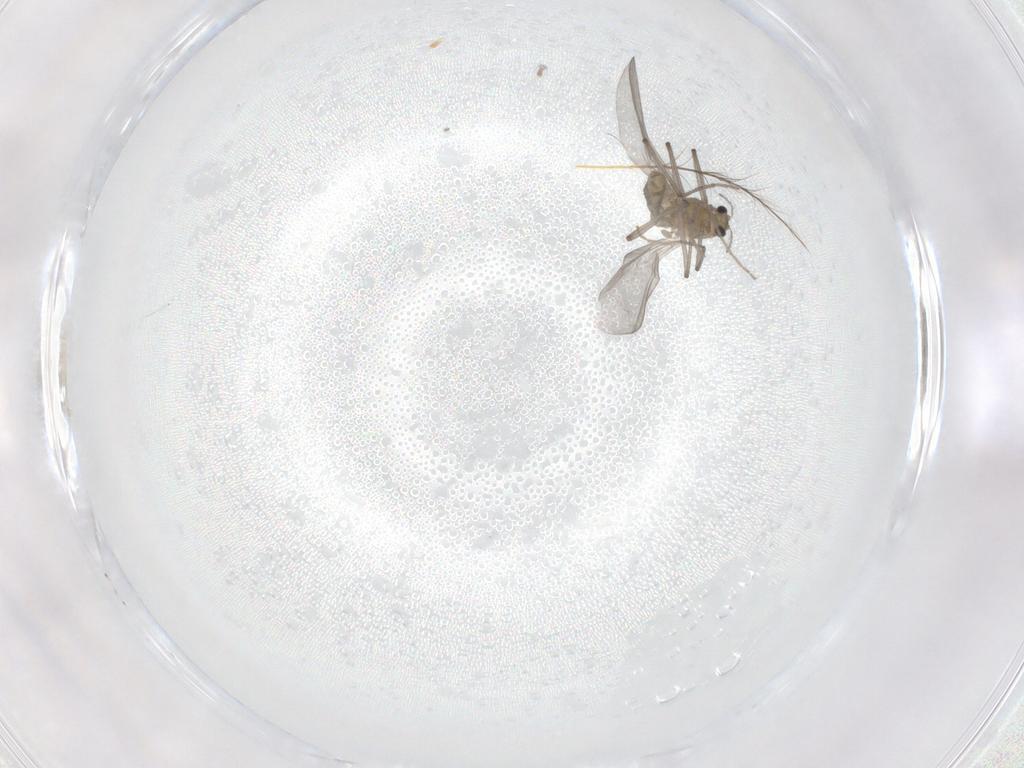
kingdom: Animalia
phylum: Arthropoda
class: Insecta
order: Diptera
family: Chironomidae
